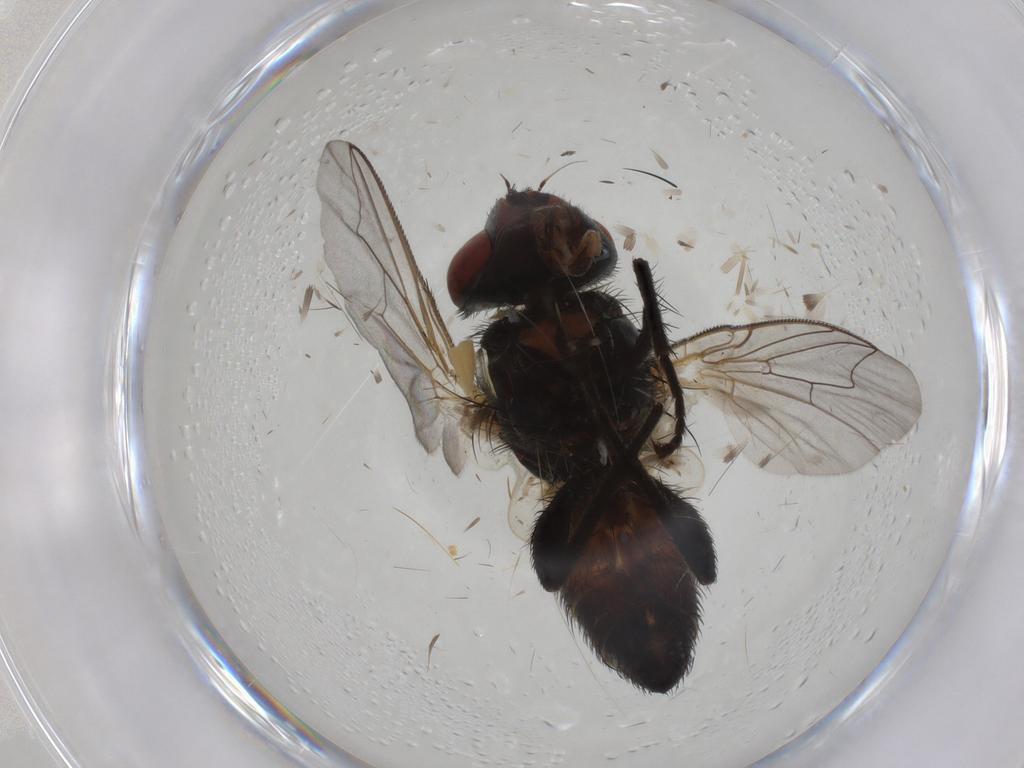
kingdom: Animalia
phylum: Arthropoda
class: Insecta
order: Diptera
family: Sarcophagidae
